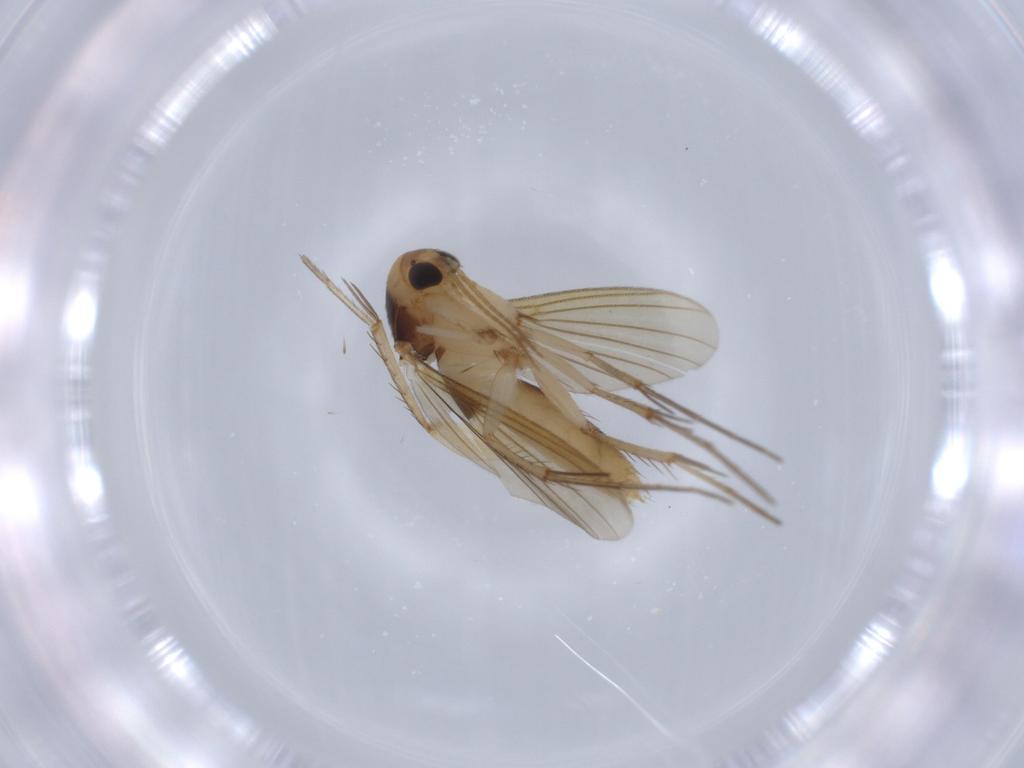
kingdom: Animalia
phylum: Arthropoda
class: Insecta
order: Diptera
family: Mycetophilidae
